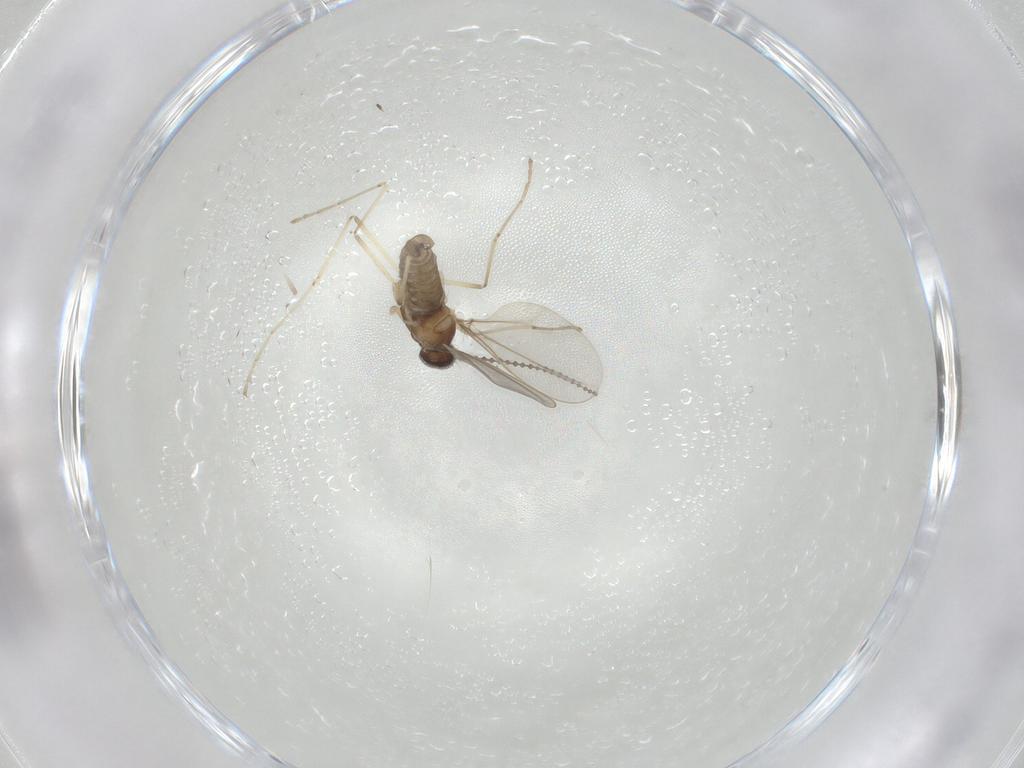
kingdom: Animalia
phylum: Arthropoda
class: Insecta
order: Diptera
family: Cecidomyiidae
